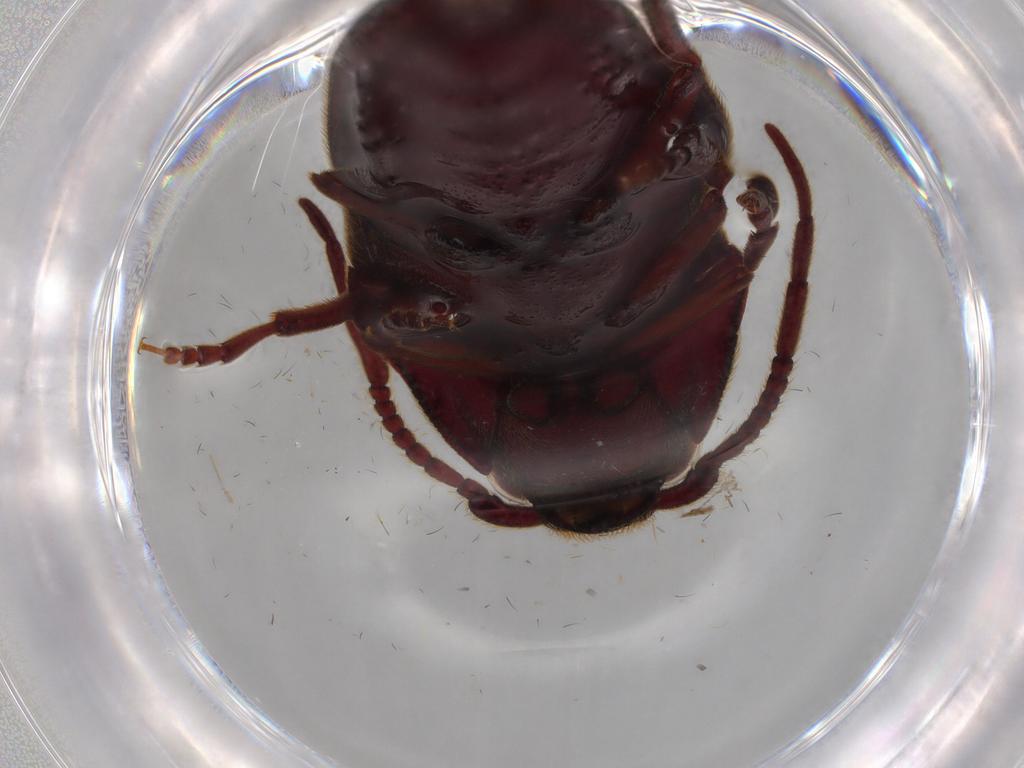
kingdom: Animalia
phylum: Arthropoda
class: Insecta
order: Coleoptera
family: Ptilodactylidae
